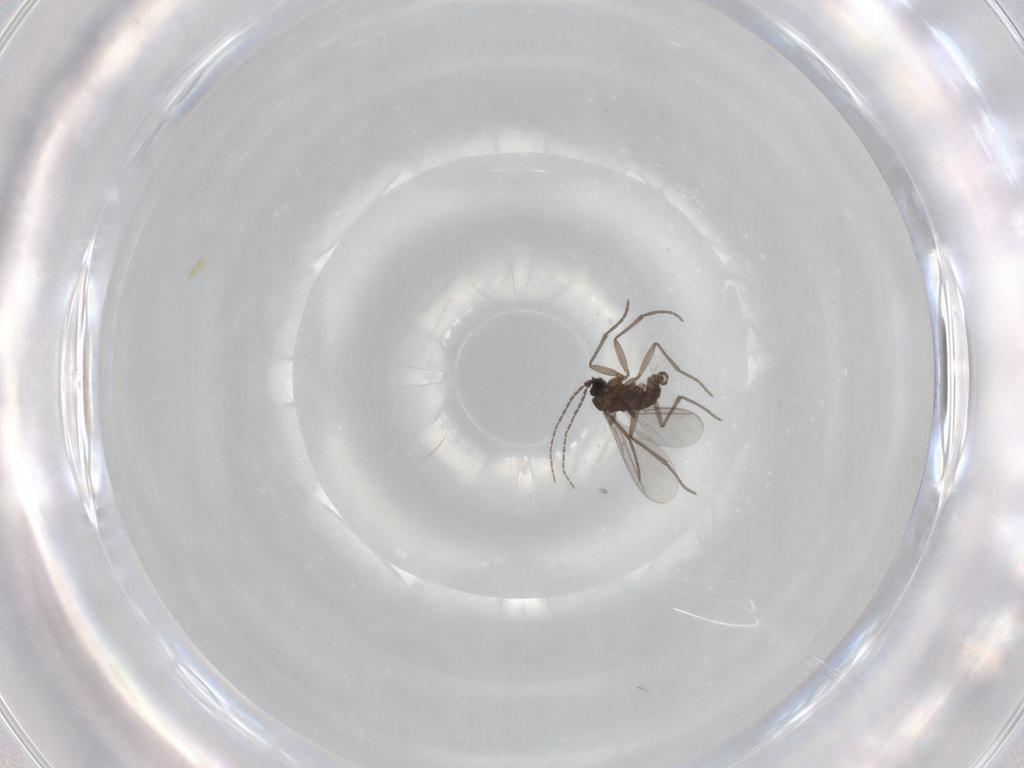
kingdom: Animalia
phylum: Arthropoda
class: Insecta
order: Diptera
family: Sciaridae
